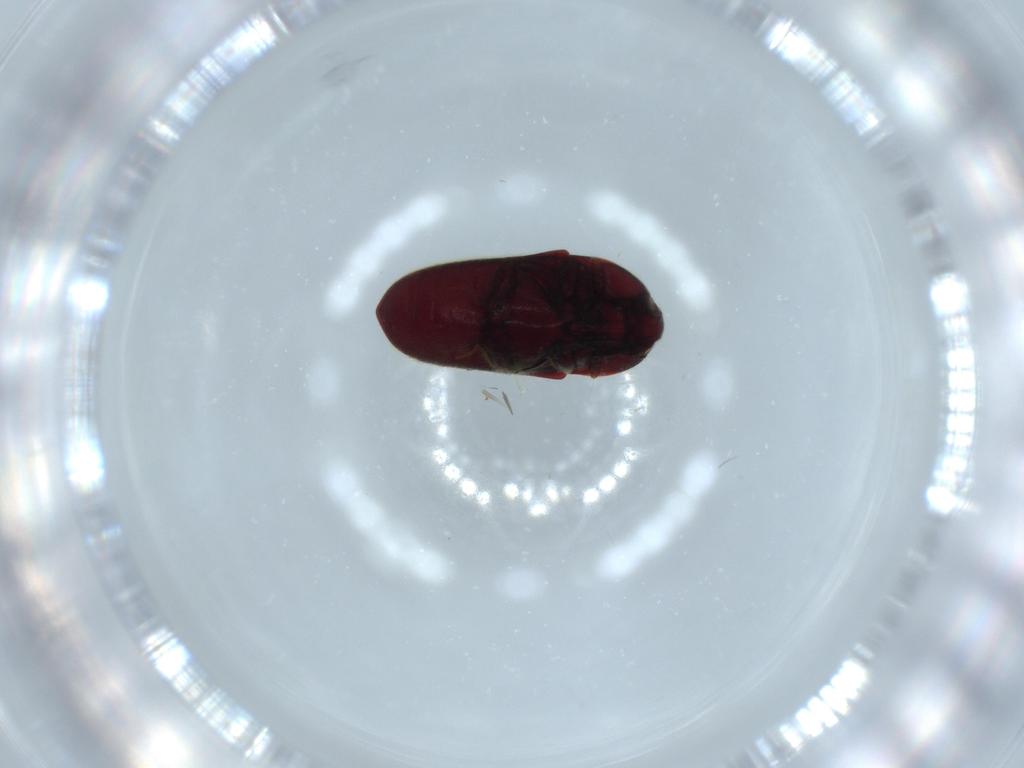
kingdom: Animalia
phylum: Arthropoda
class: Insecta
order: Coleoptera
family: Throscidae
